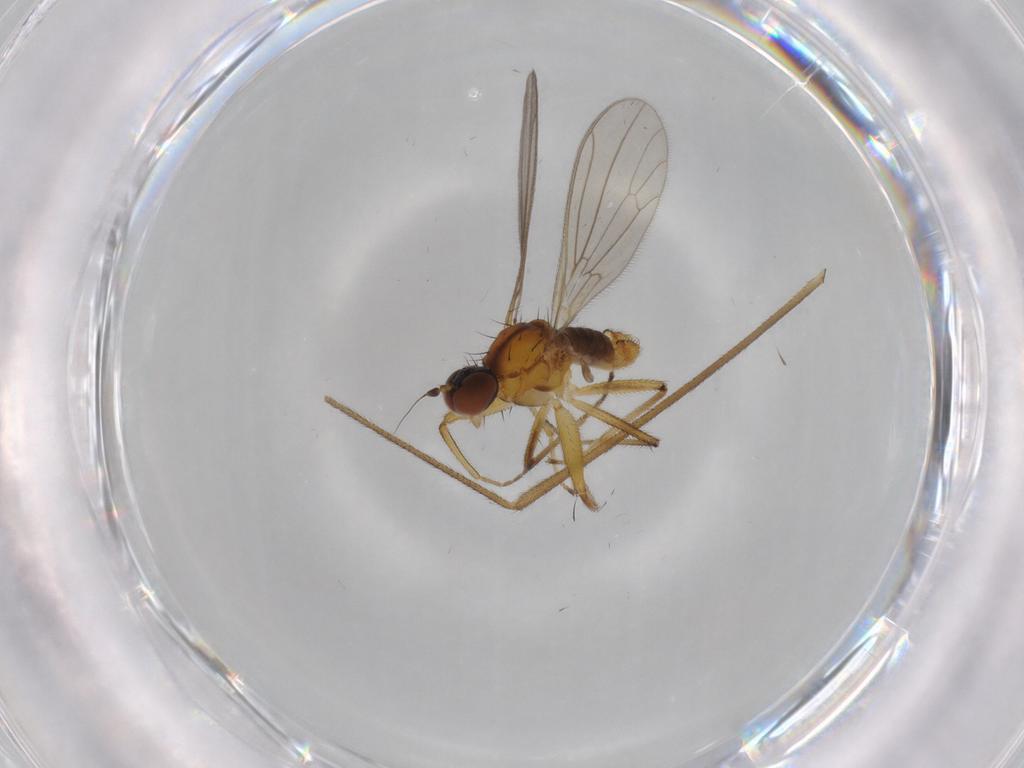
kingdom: Animalia
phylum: Arthropoda
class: Insecta
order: Diptera
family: Empididae
